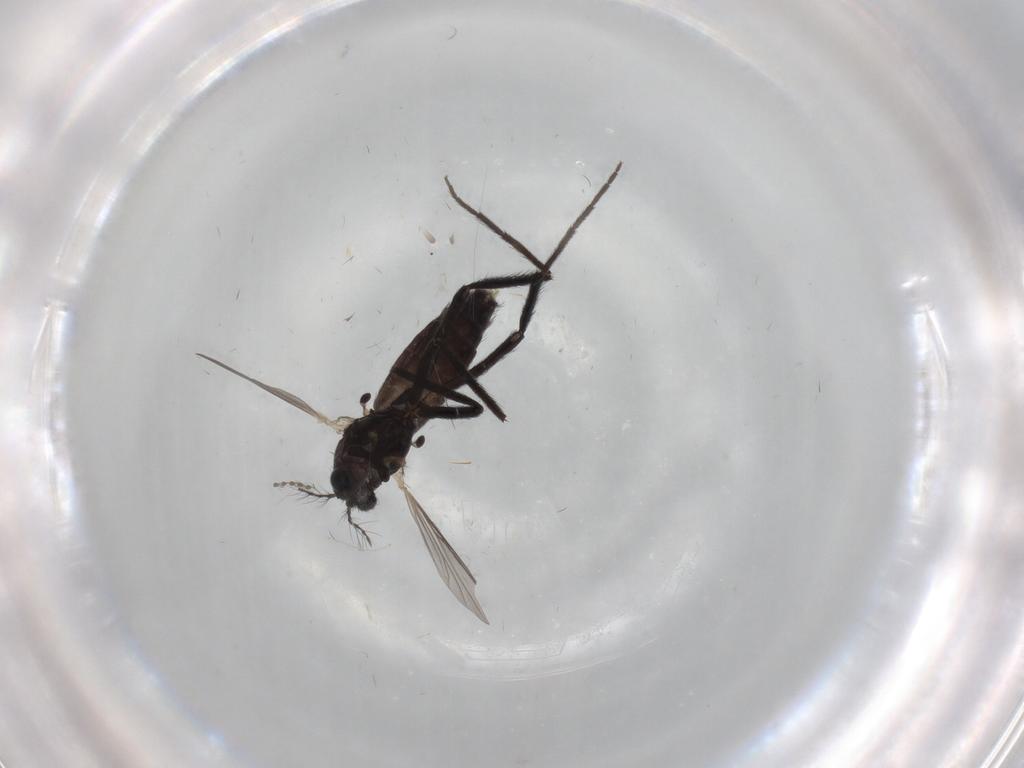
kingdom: Animalia
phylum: Arthropoda
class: Insecta
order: Diptera
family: Chironomidae
